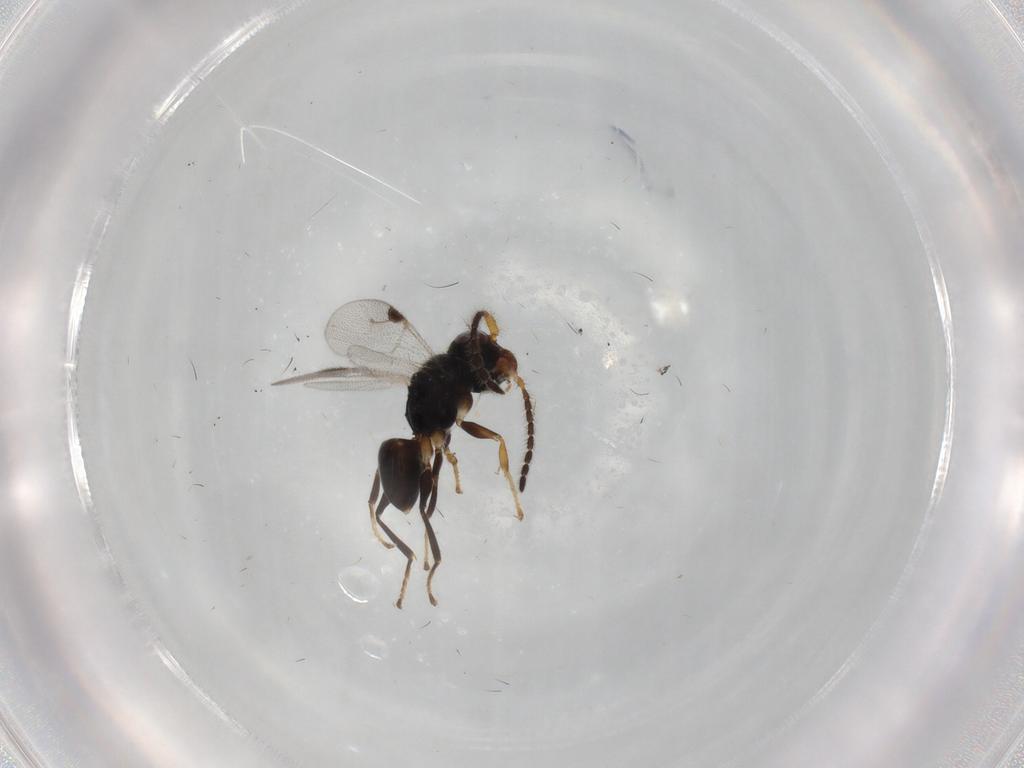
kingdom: Animalia
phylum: Arthropoda
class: Insecta
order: Hymenoptera
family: Dryinidae
